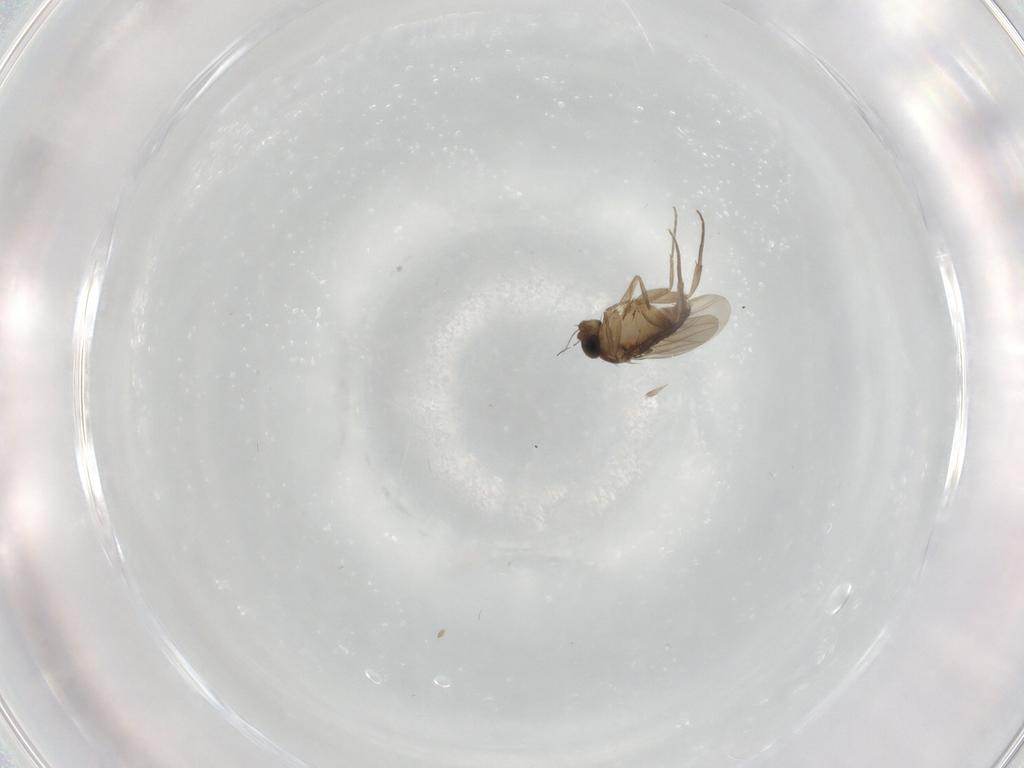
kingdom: Animalia
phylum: Arthropoda
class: Insecta
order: Diptera
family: Phoridae
